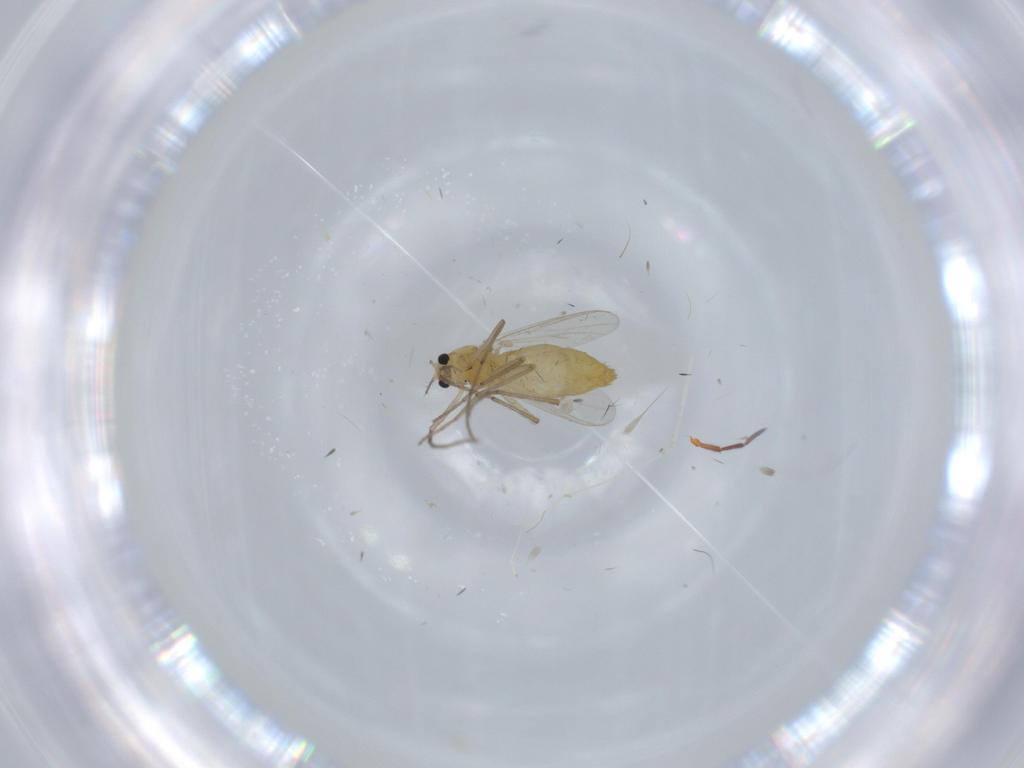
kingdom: Animalia
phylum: Arthropoda
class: Insecta
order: Diptera
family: Chironomidae
